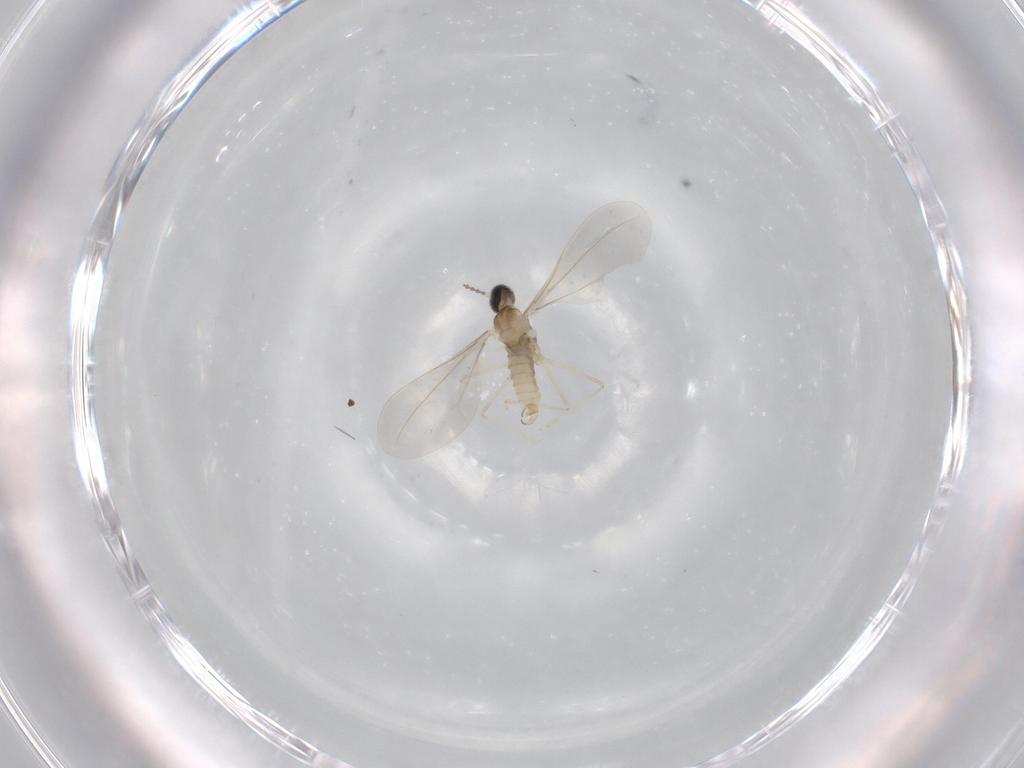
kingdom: Animalia
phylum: Arthropoda
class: Insecta
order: Diptera
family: Cecidomyiidae
